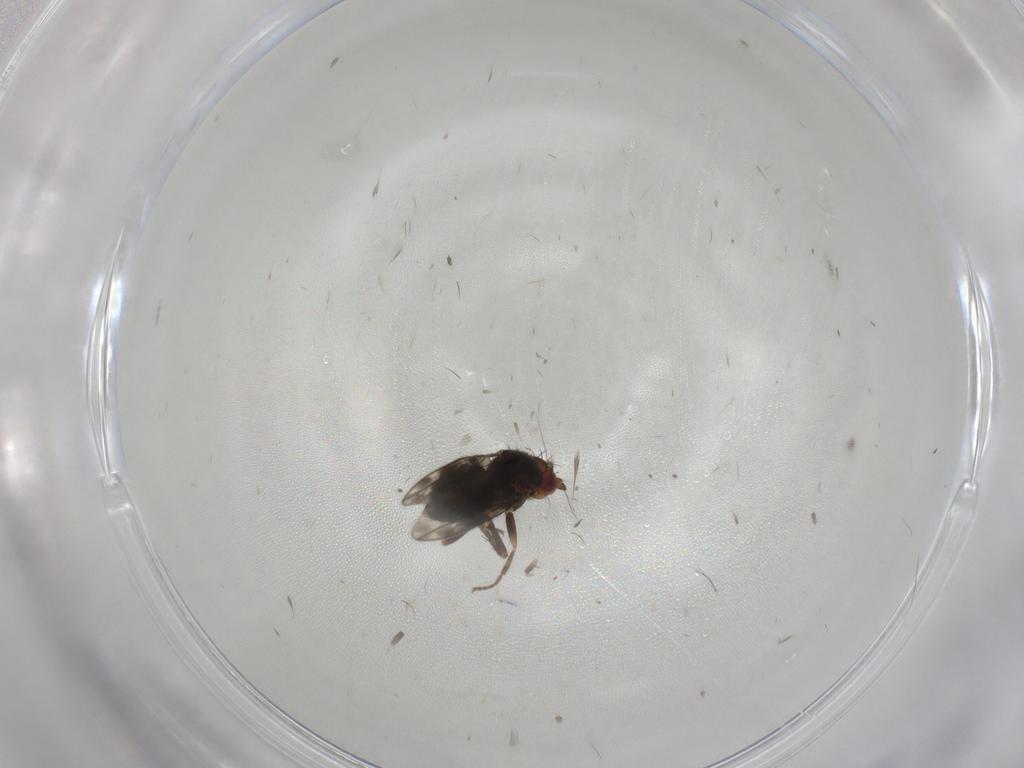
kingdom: Animalia
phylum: Arthropoda
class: Insecta
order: Diptera
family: Sphaeroceridae
